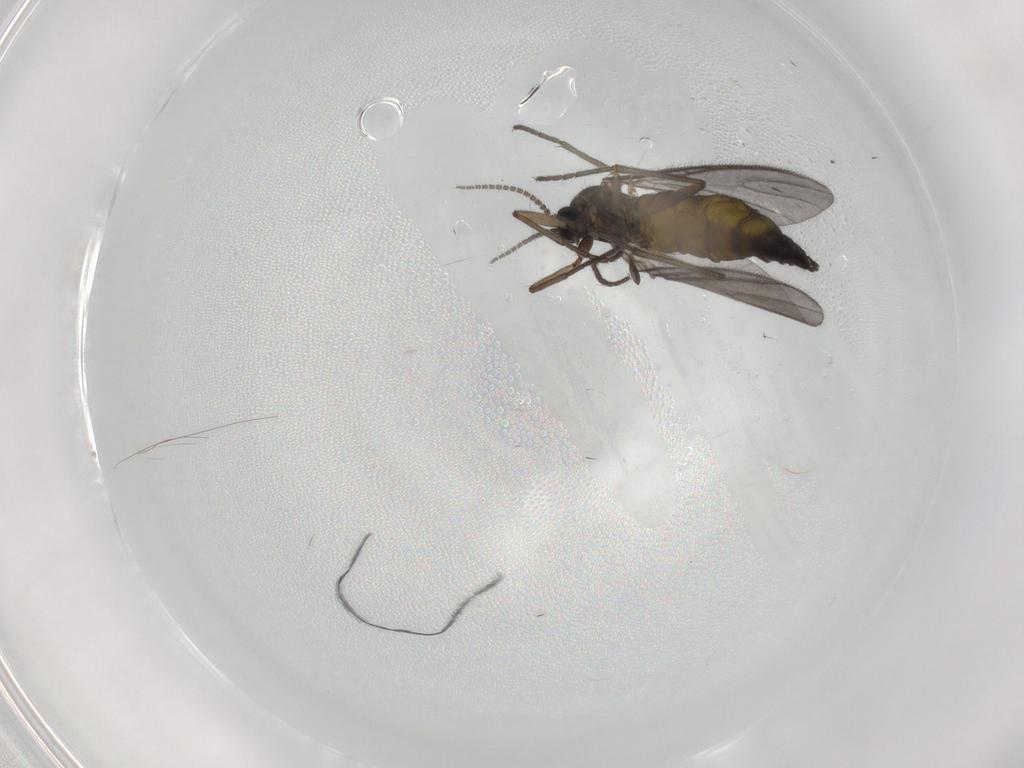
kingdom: Animalia
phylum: Arthropoda
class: Insecta
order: Diptera
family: Sciaridae
